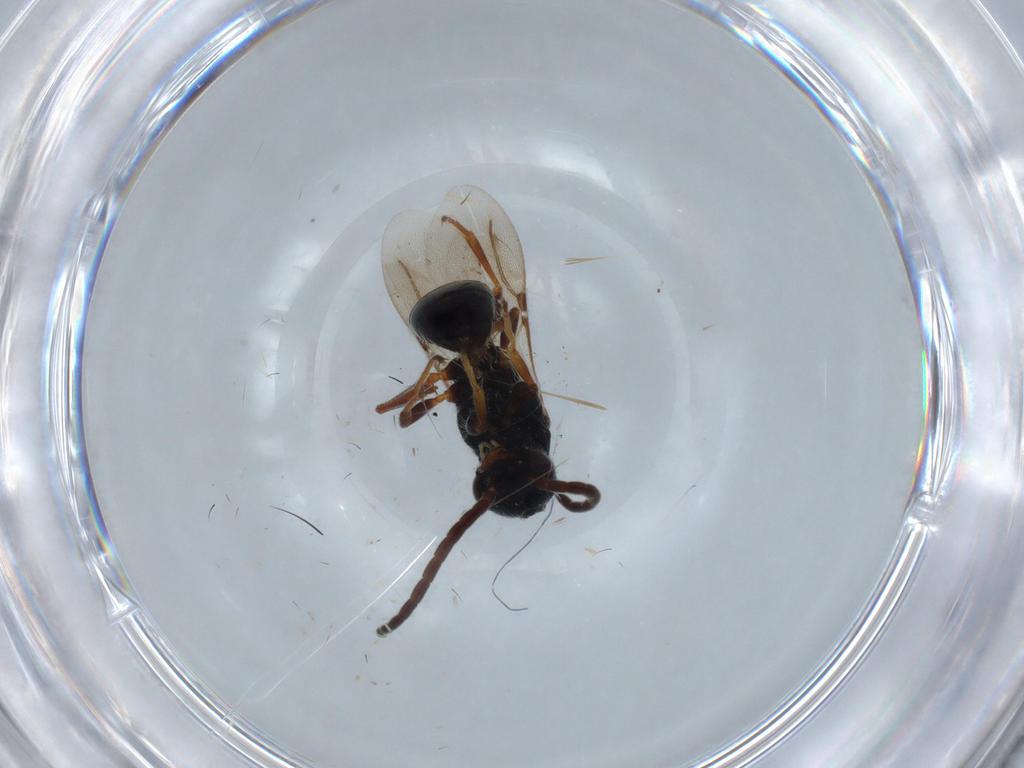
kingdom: Animalia
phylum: Arthropoda
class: Insecta
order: Hymenoptera
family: Bethylidae
